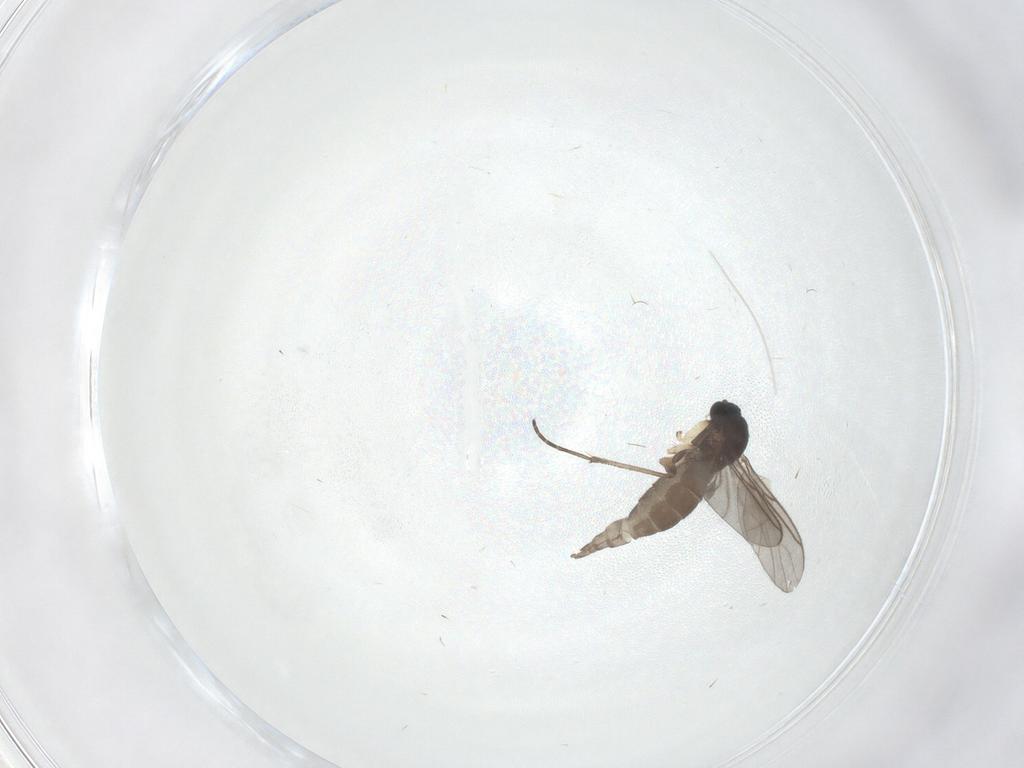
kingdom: Animalia
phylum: Arthropoda
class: Insecta
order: Diptera
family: Sciaridae
